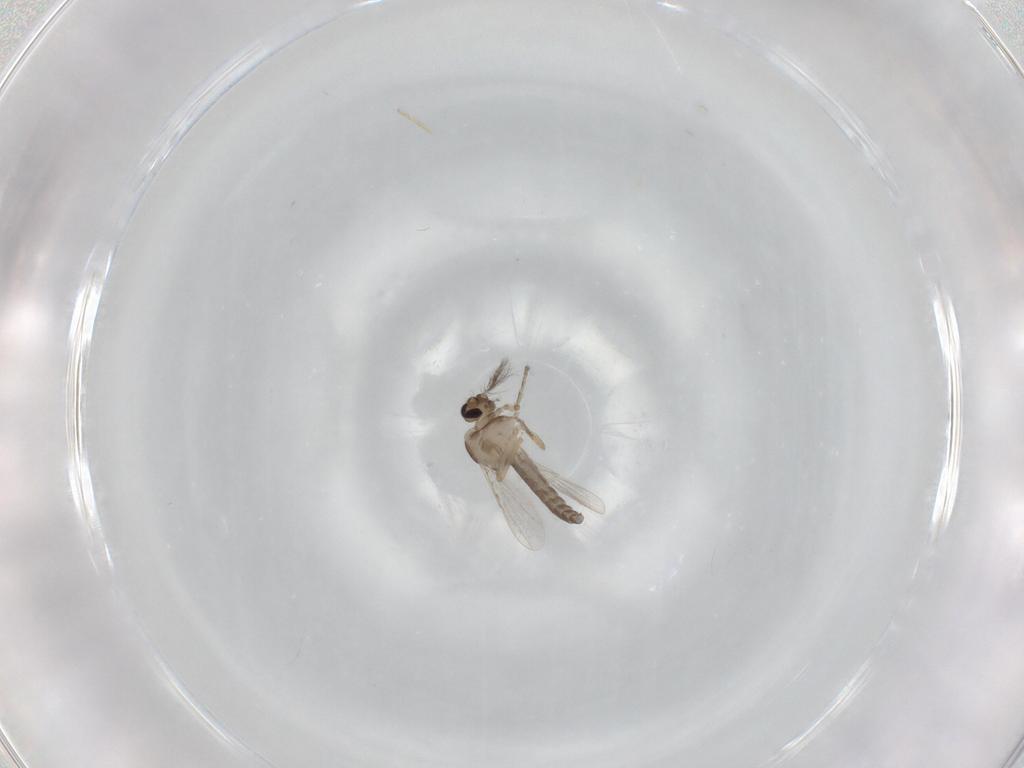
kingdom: Animalia
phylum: Arthropoda
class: Insecta
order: Diptera
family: Ceratopogonidae
